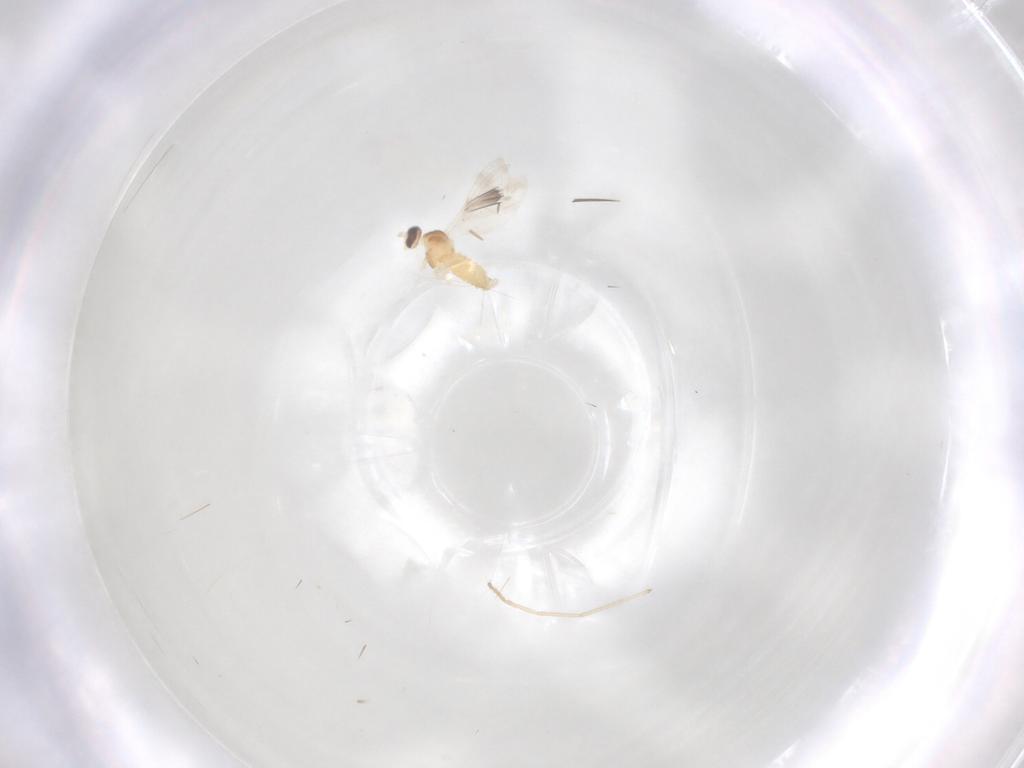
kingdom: Animalia
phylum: Arthropoda
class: Insecta
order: Diptera
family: Cecidomyiidae
